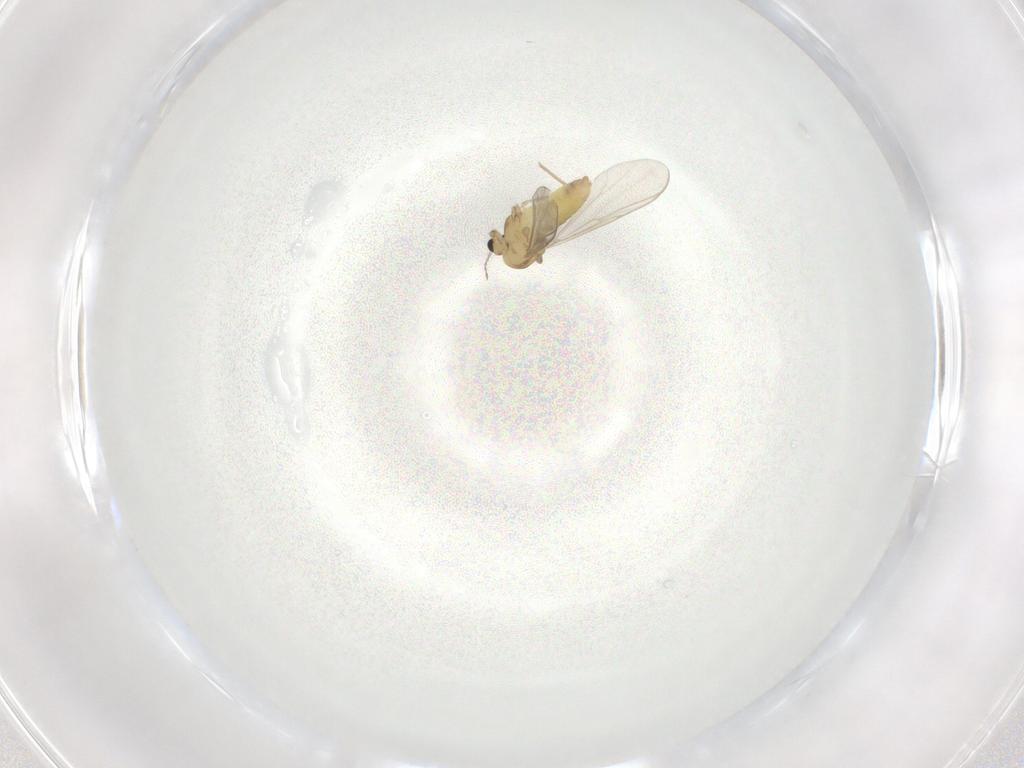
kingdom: Animalia
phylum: Arthropoda
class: Insecta
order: Diptera
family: Chironomidae
